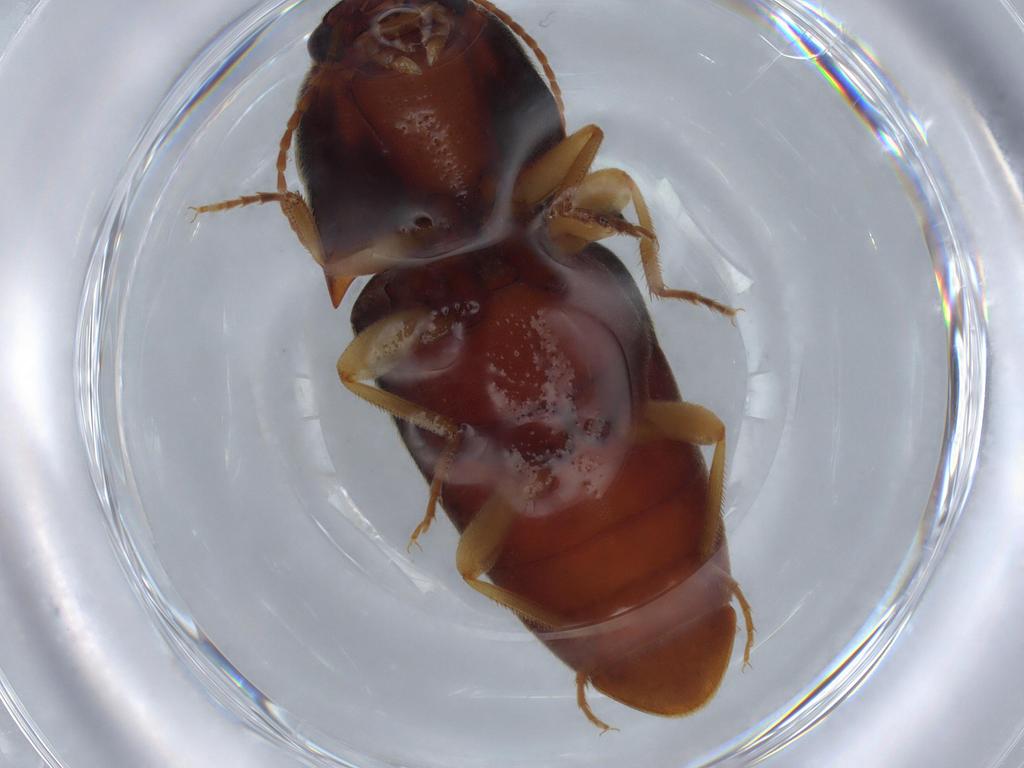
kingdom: Animalia
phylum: Arthropoda
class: Insecta
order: Coleoptera
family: Elateridae
